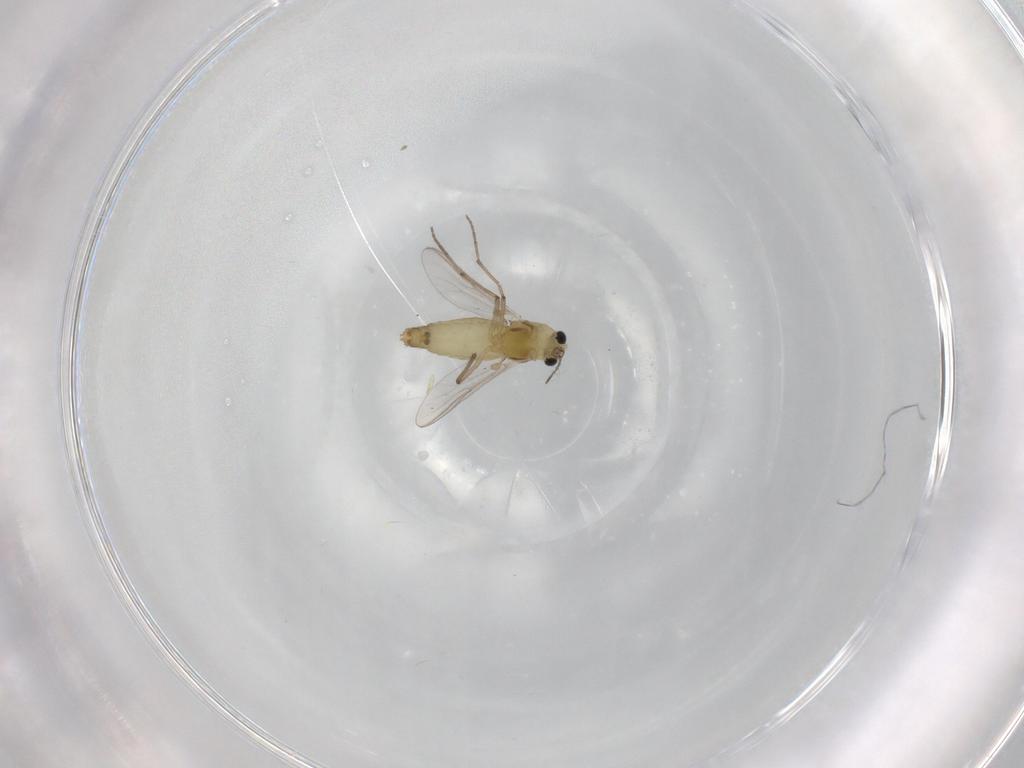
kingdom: Animalia
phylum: Arthropoda
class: Insecta
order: Diptera
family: Chironomidae
